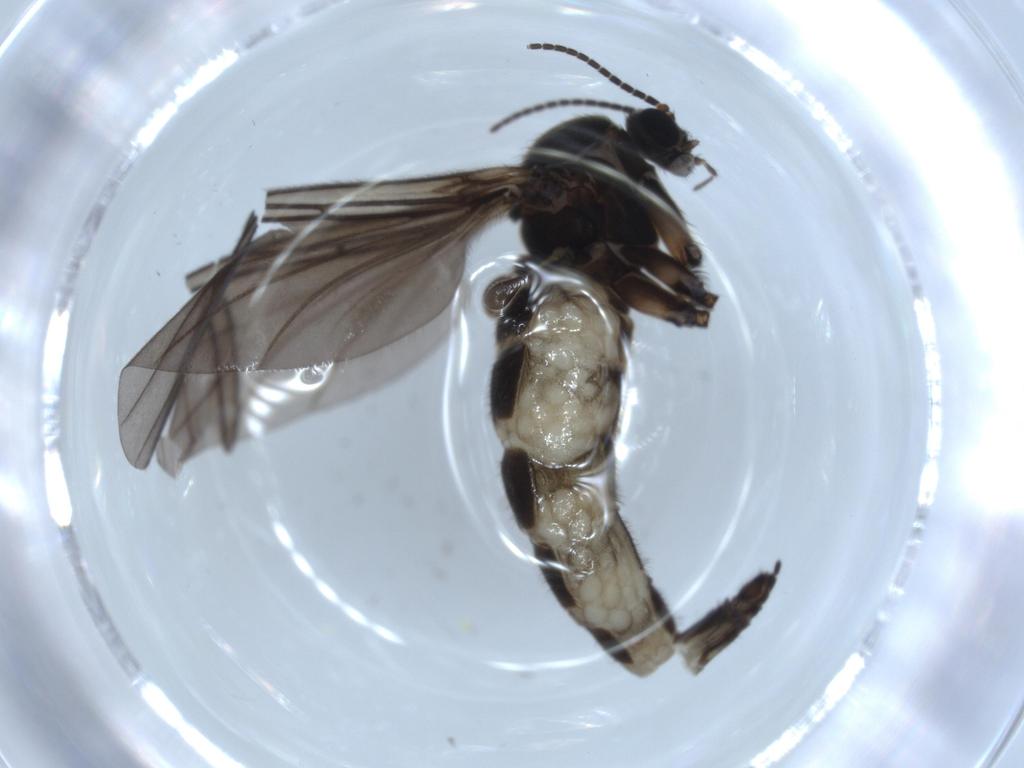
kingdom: Animalia
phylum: Arthropoda
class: Insecta
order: Diptera
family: Sciaridae
